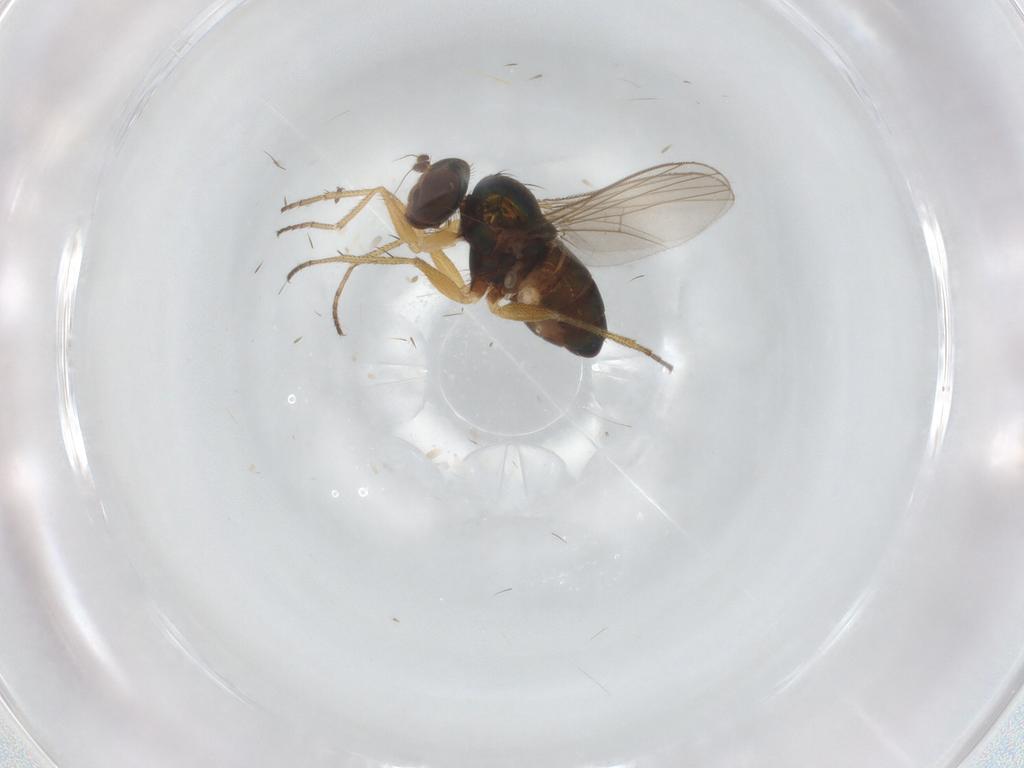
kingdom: Animalia
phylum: Arthropoda
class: Insecta
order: Diptera
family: Ceratopogonidae
